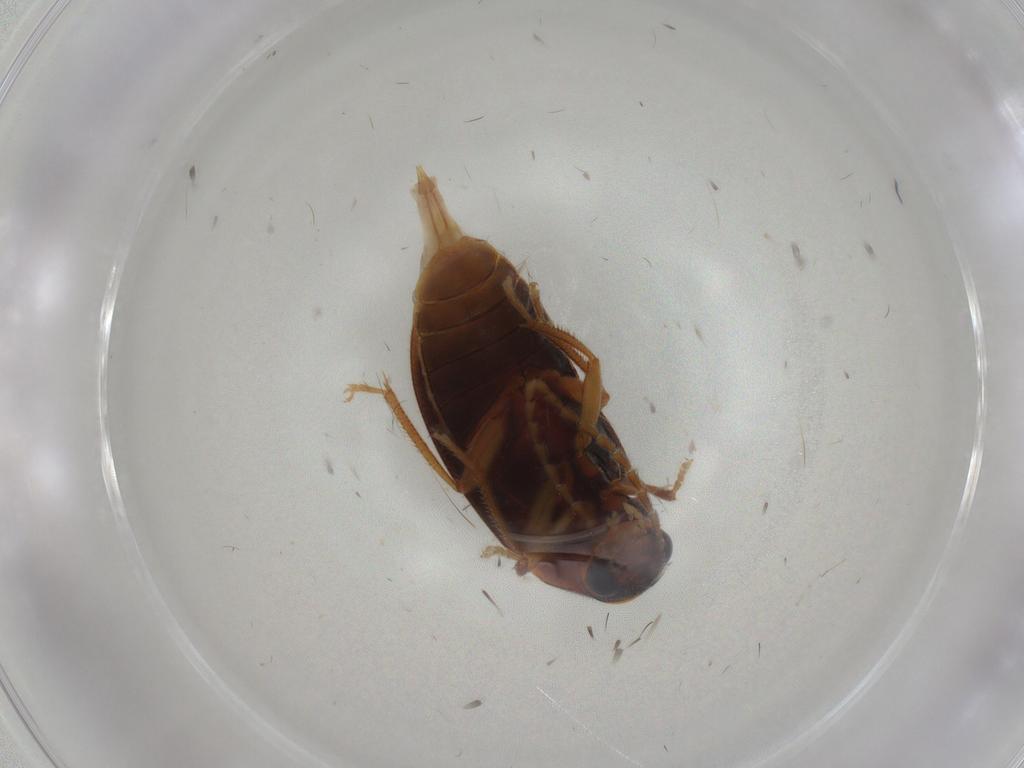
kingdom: Animalia
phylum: Arthropoda
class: Insecta
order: Coleoptera
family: Ptilodactylidae
